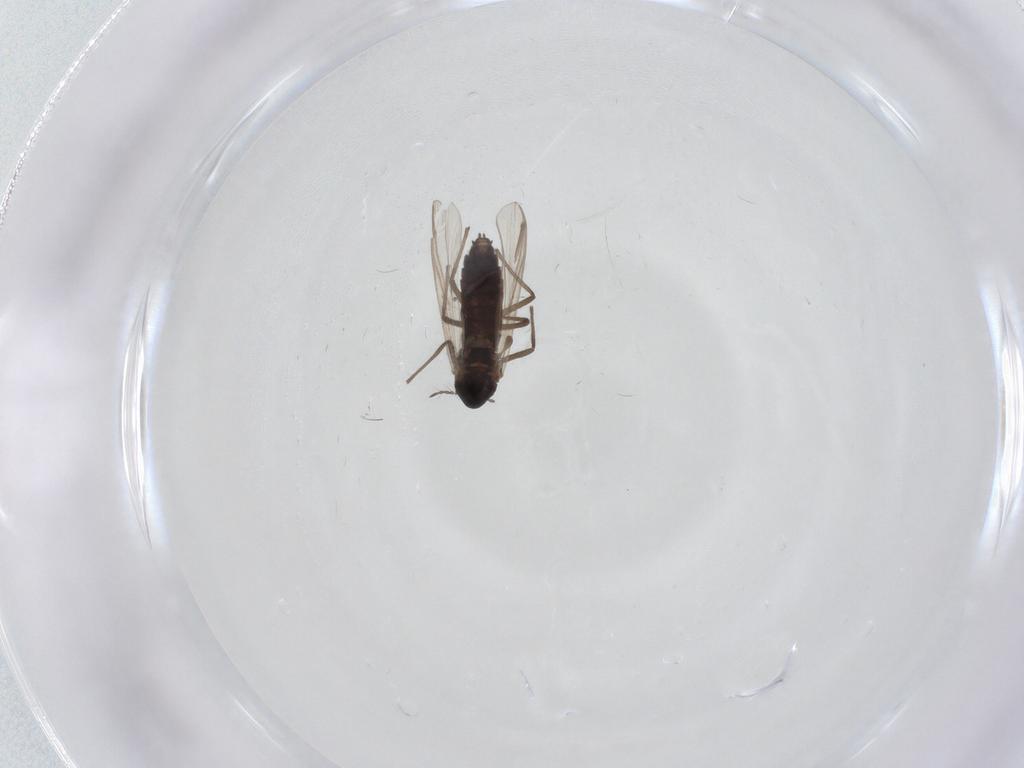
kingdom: Animalia
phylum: Arthropoda
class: Insecta
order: Diptera
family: Chironomidae
